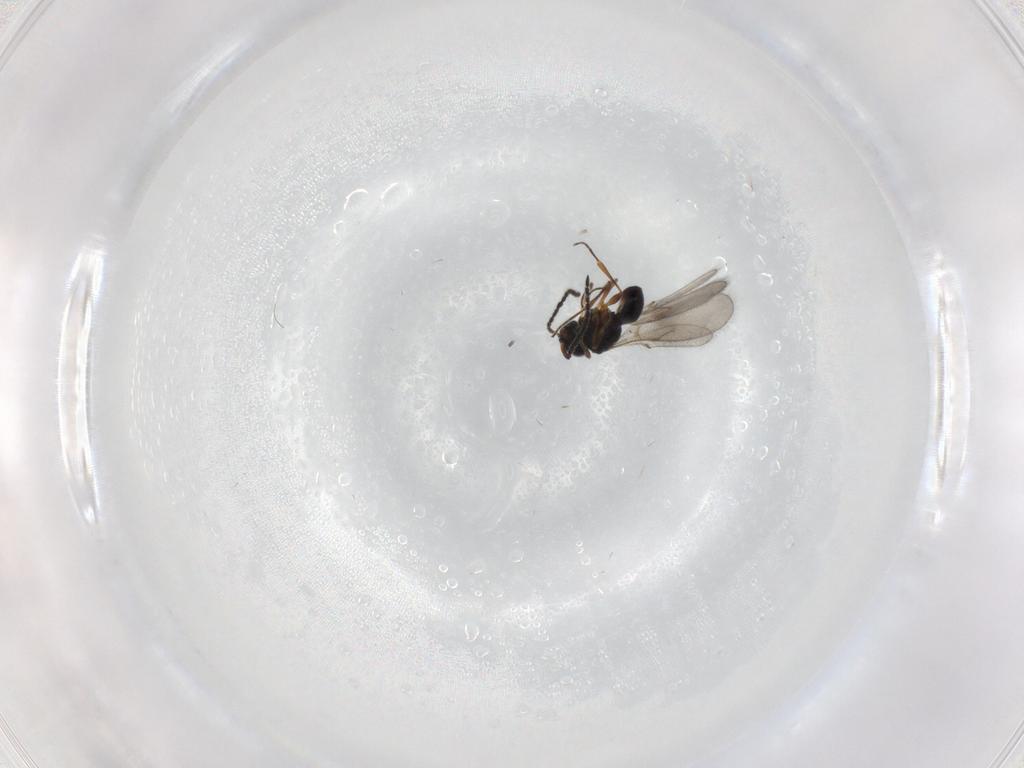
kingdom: Animalia
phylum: Arthropoda
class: Insecta
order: Hymenoptera
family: Scelionidae
